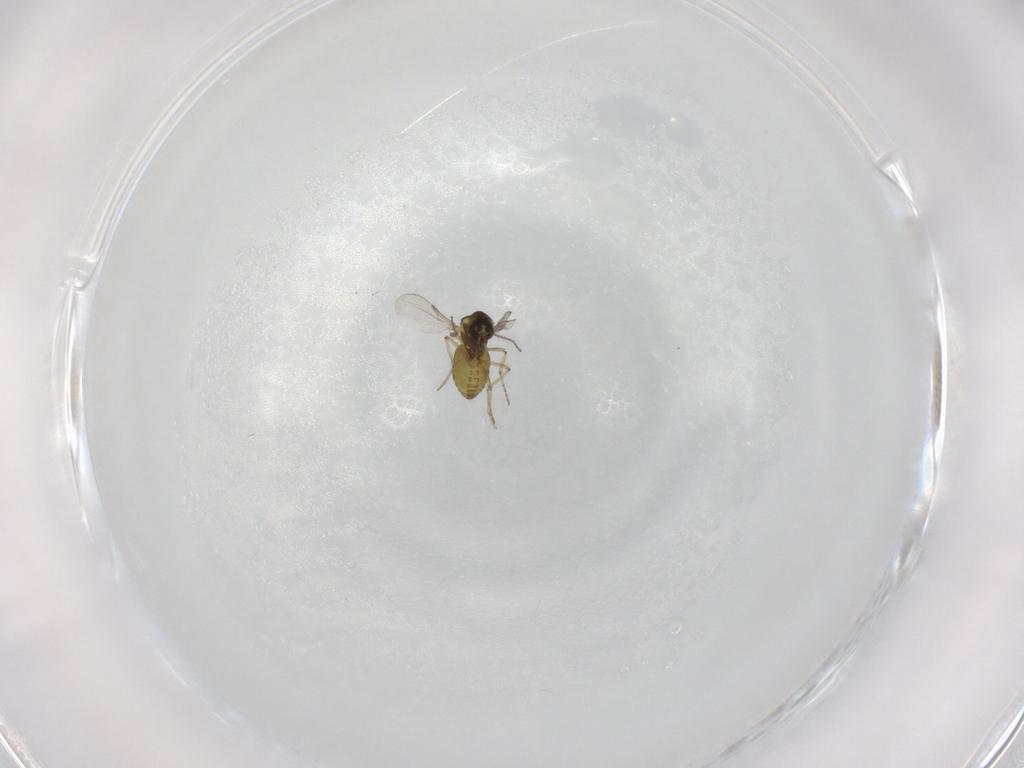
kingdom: Animalia
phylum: Arthropoda
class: Insecta
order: Diptera
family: Ceratopogonidae
